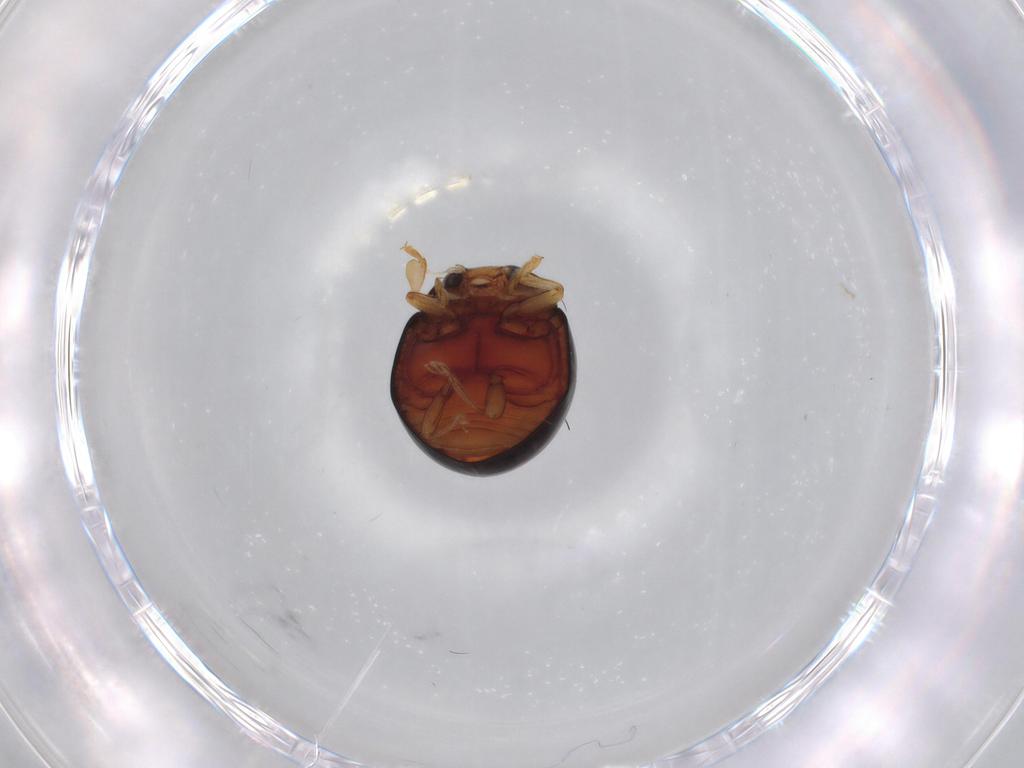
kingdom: Animalia
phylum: Arthropoda
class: Insecta
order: Coleoptera
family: Coccinellidae
